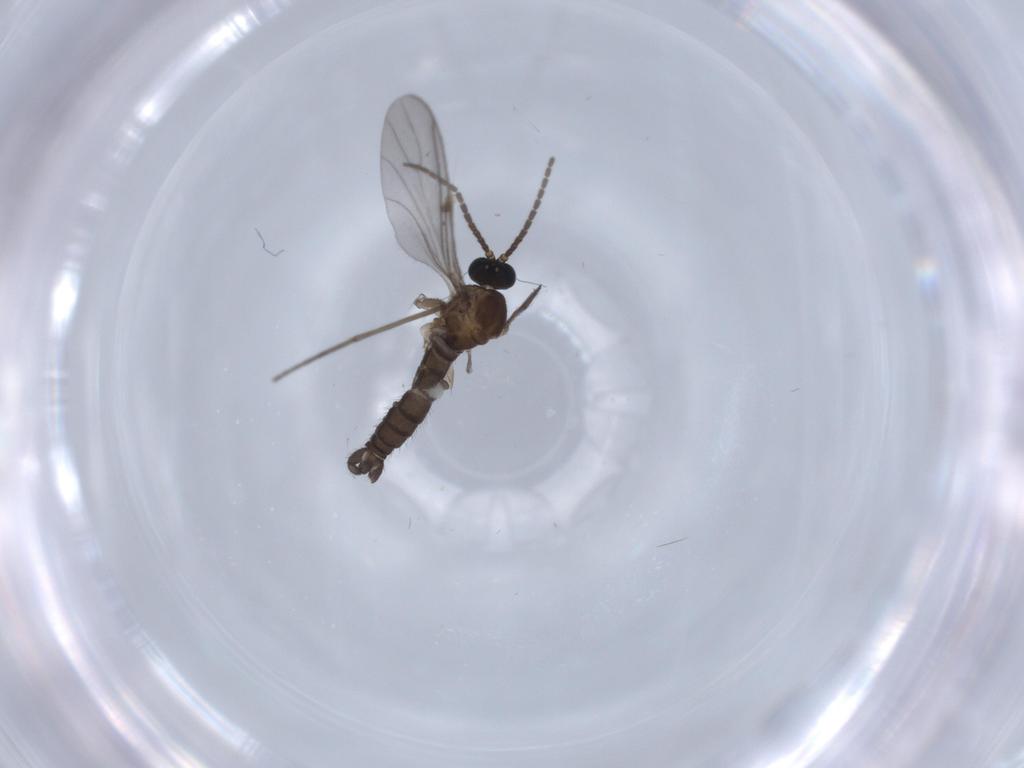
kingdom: Animalia
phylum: Arthropoda
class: Insecta
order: Diptera
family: Sciaridae
